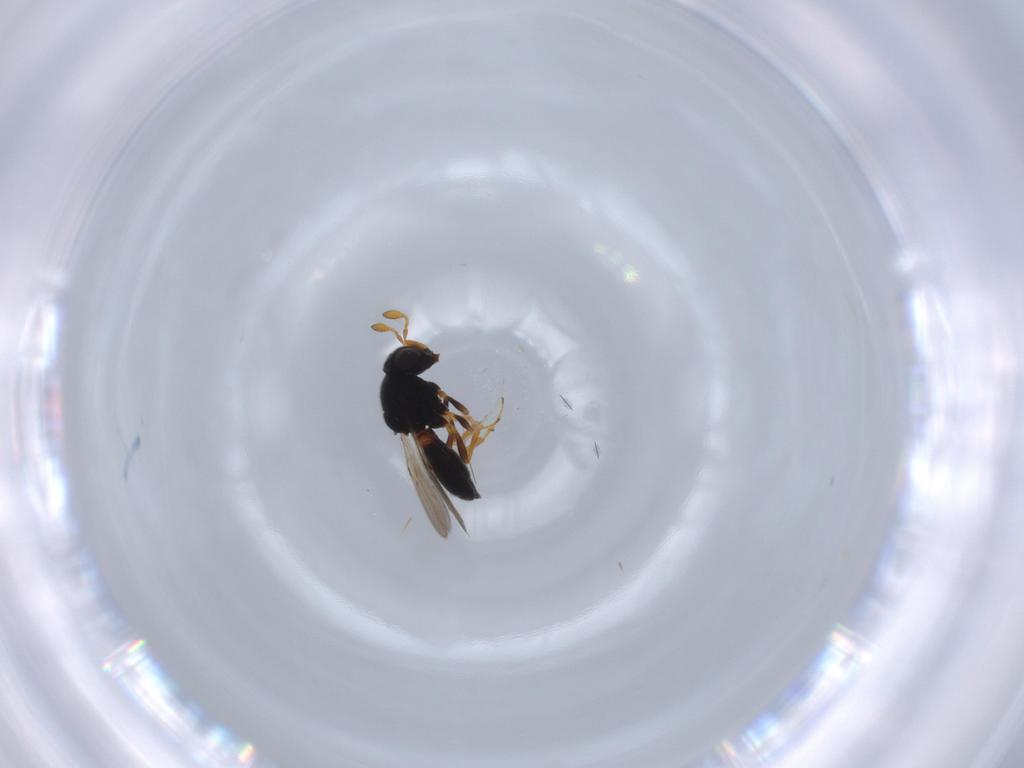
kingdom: Animalia
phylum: Arthropoda
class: Insecta
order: Hymenoptera
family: Scelionidae
